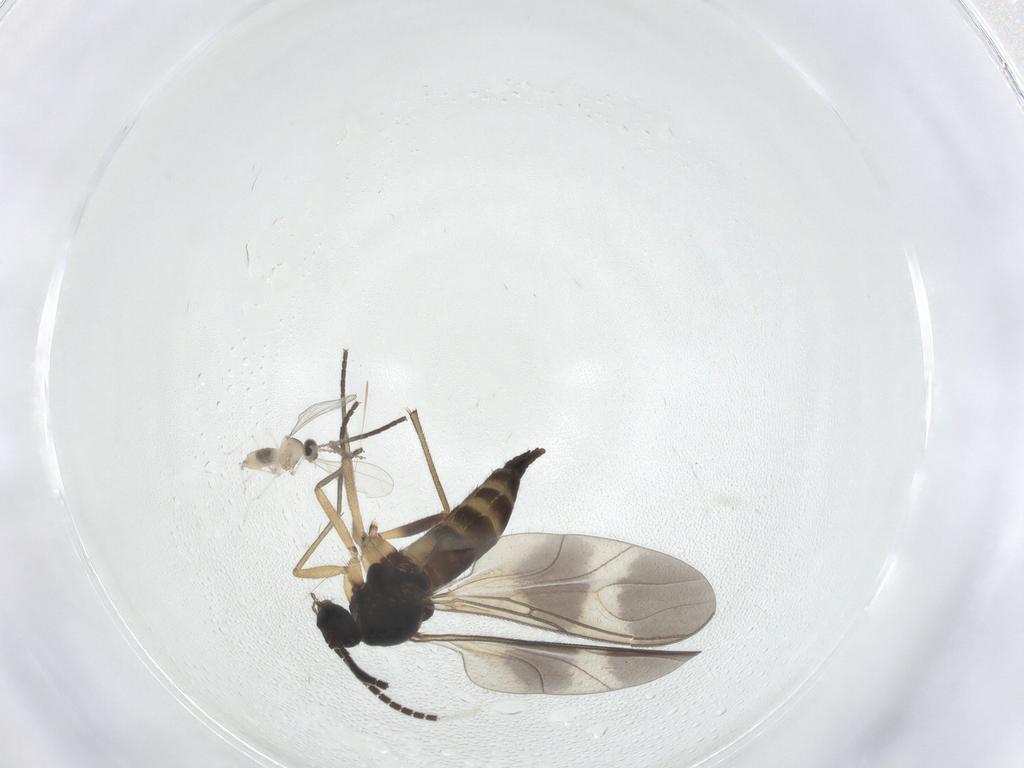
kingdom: Animalia
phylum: Arthropoda
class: Insecta
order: Diptera
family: Cecidomyiidae
